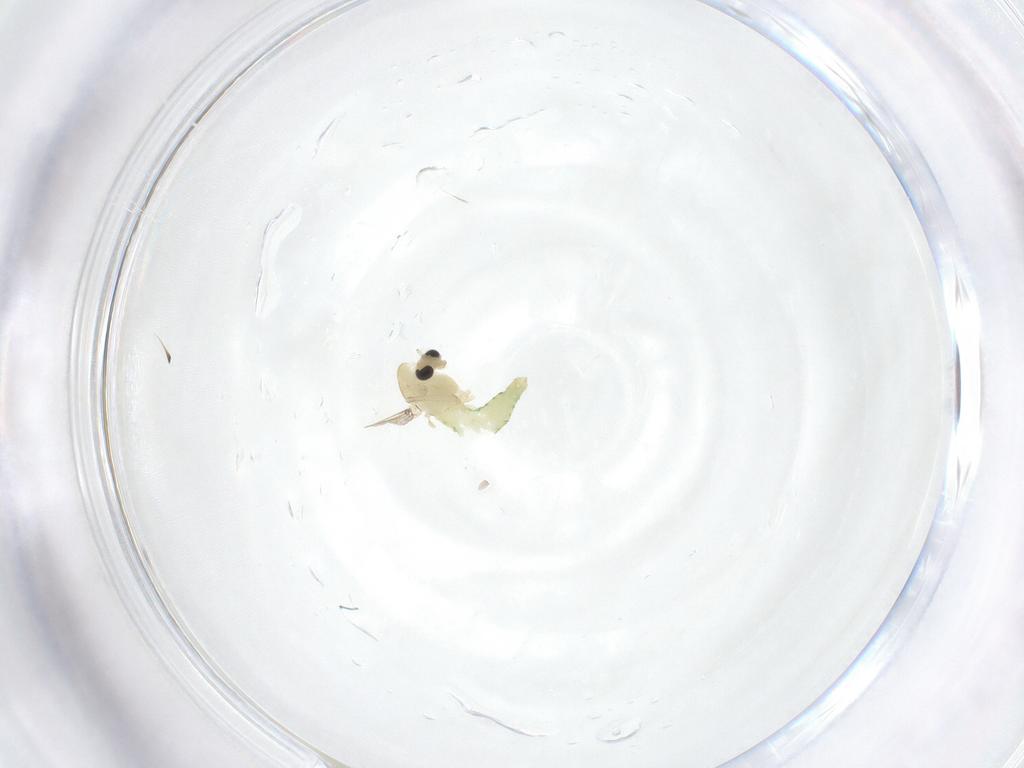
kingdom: Animalia
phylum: Arthropoda
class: Insecta
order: Diptera
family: Chironomidae
